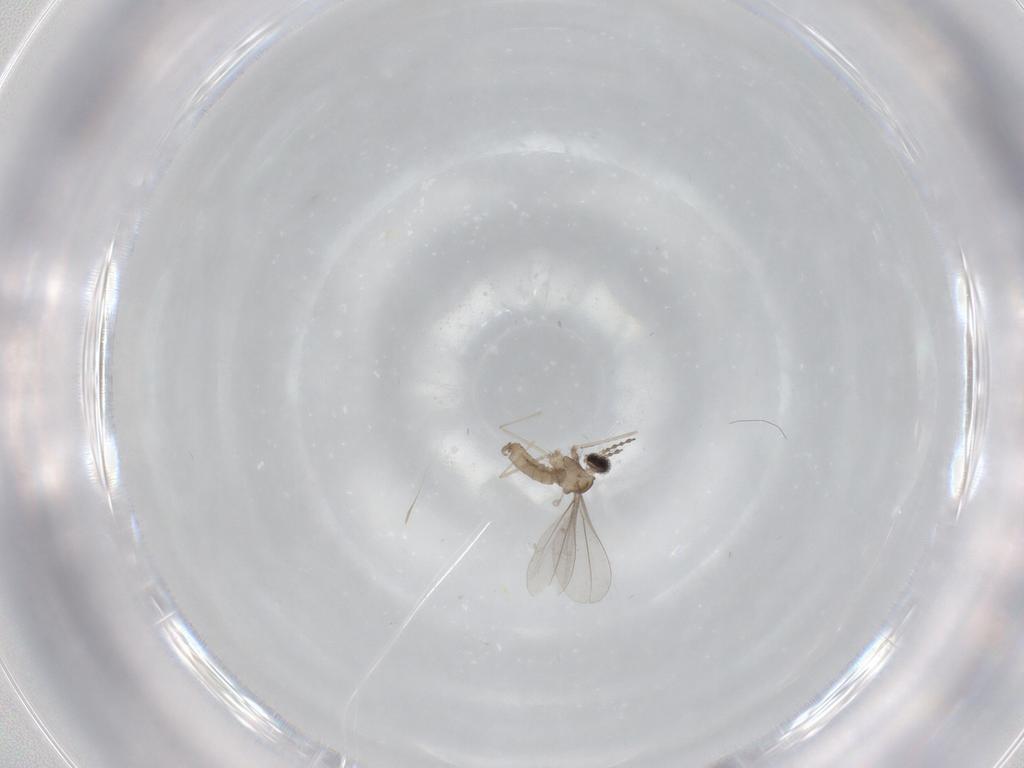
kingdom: Animalia
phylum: Arthropoda
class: Insecta
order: Diptera
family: Cecidomyiidae
